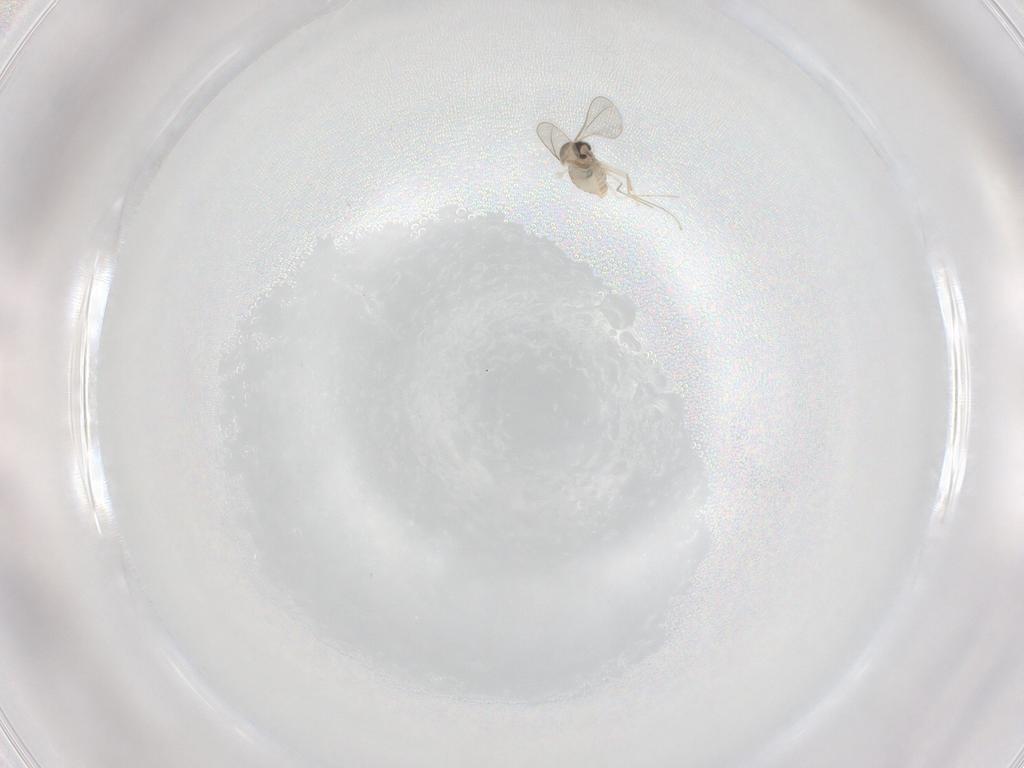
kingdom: Animalia
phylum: Arthropoda
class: Insecta
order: Diptera
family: Cecidomyiidae
